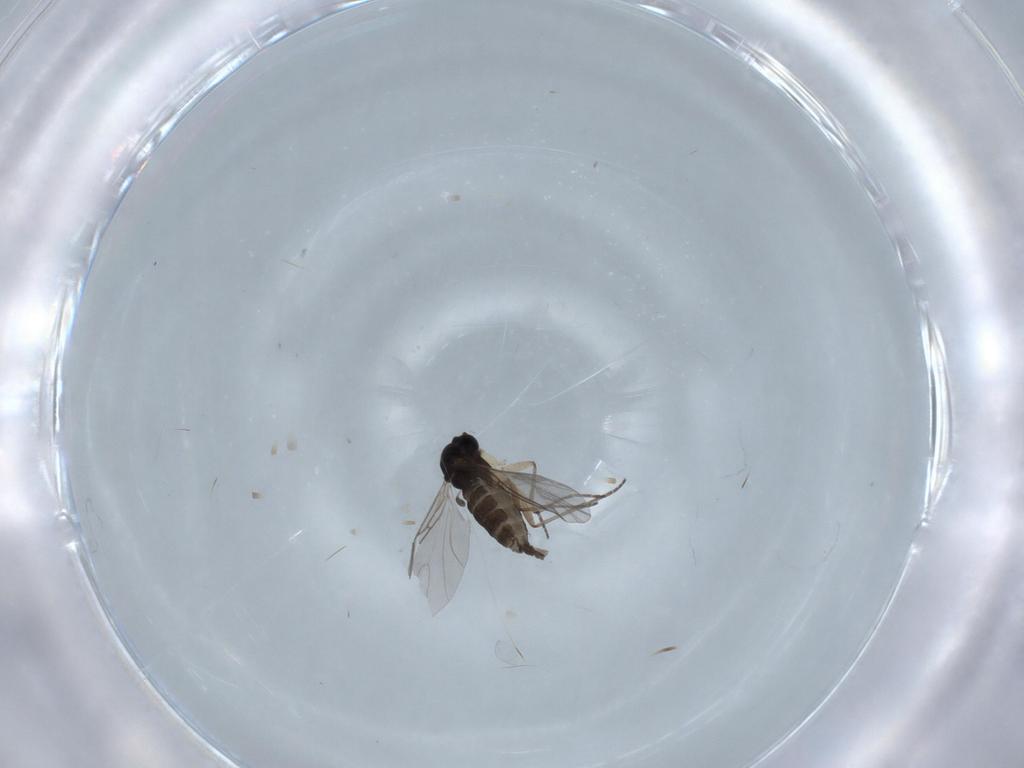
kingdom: Animalia
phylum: Arthropoda
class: Insecta
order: Diptera
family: Sciaridae
